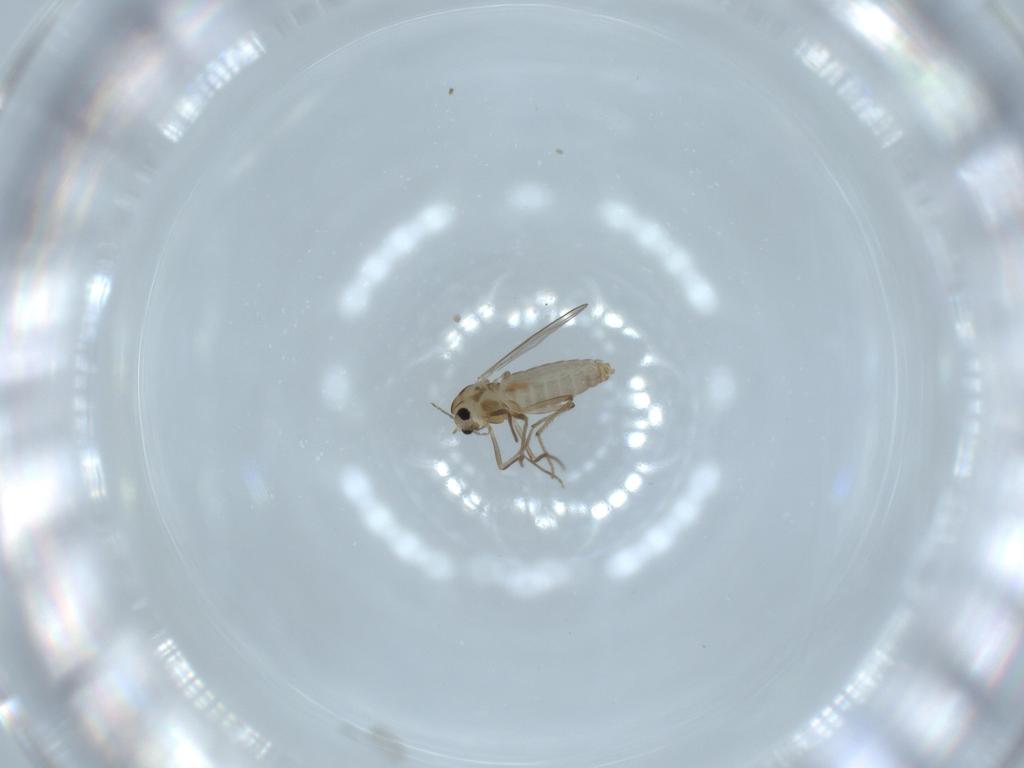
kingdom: Animalia
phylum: Arthropoda
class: Insecta
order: Diptera
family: Chironomidae
